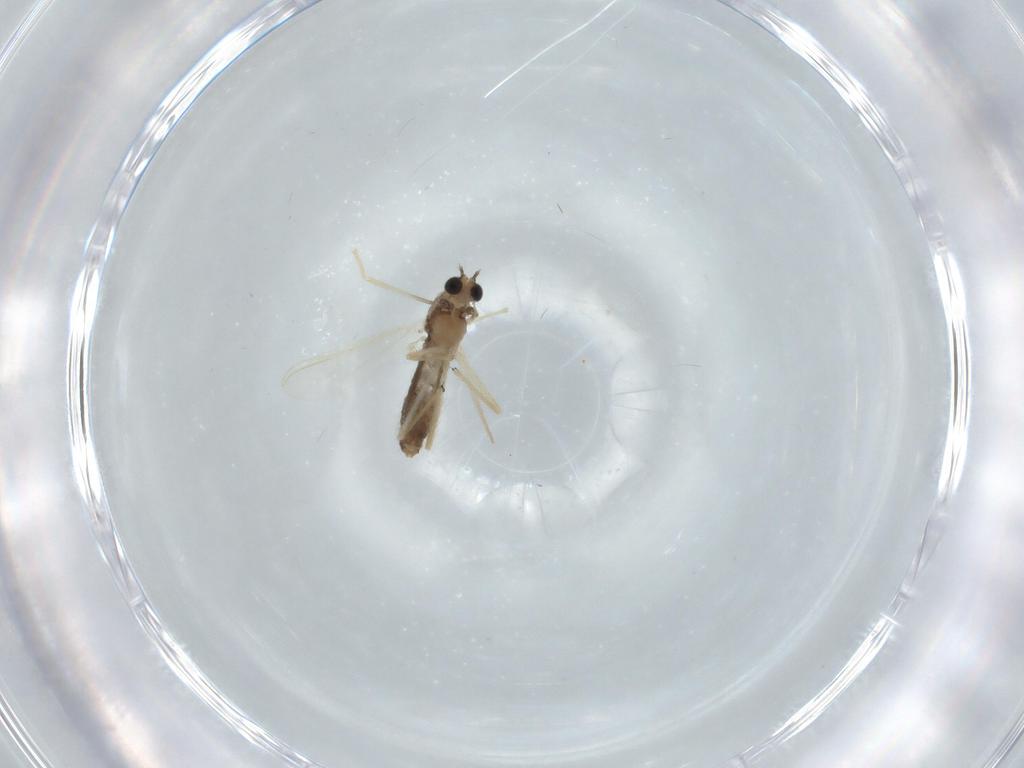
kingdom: Animalia
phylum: Arthropoda
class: Insecta
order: Diptera
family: Chironomidae
